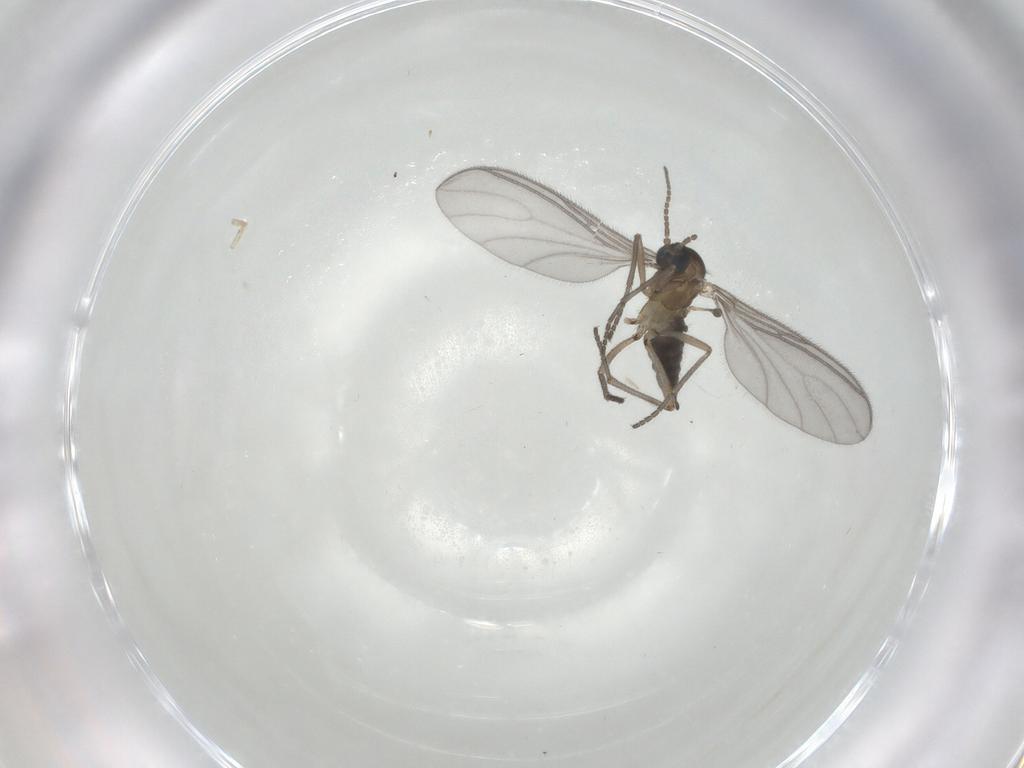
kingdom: Animalia
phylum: Arthropoda
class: Insecta
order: Diptera
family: Sciaridae
